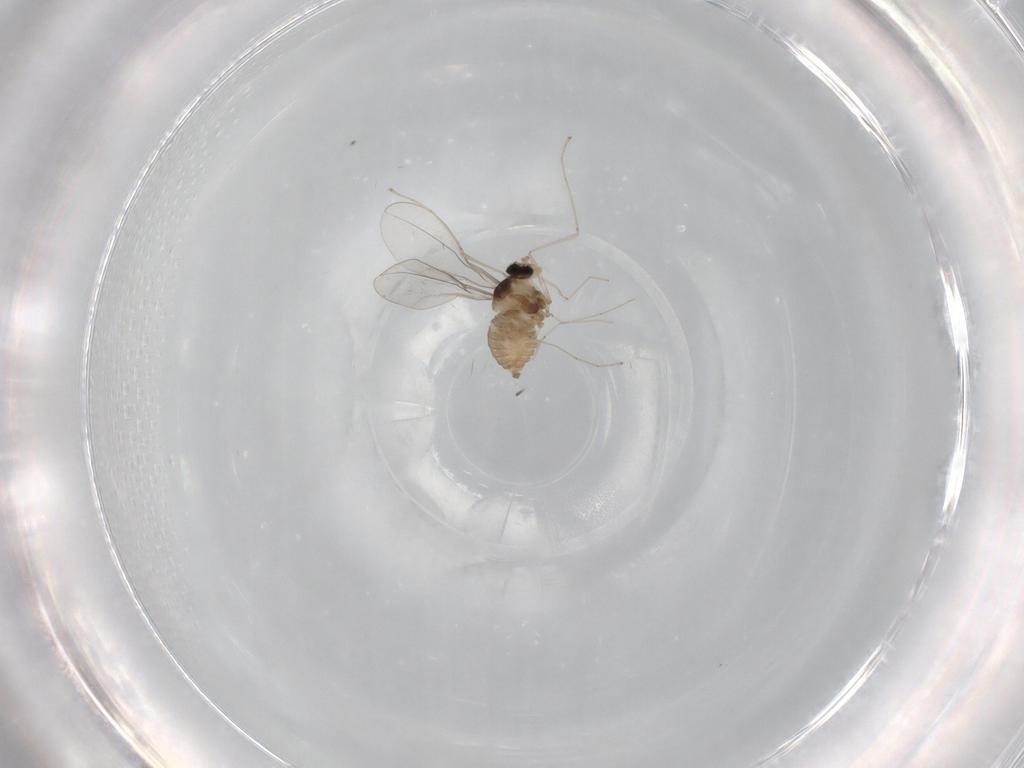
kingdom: Animalia
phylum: Arthropoda
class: Insecta
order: Diptera
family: Cecidomyiidae
